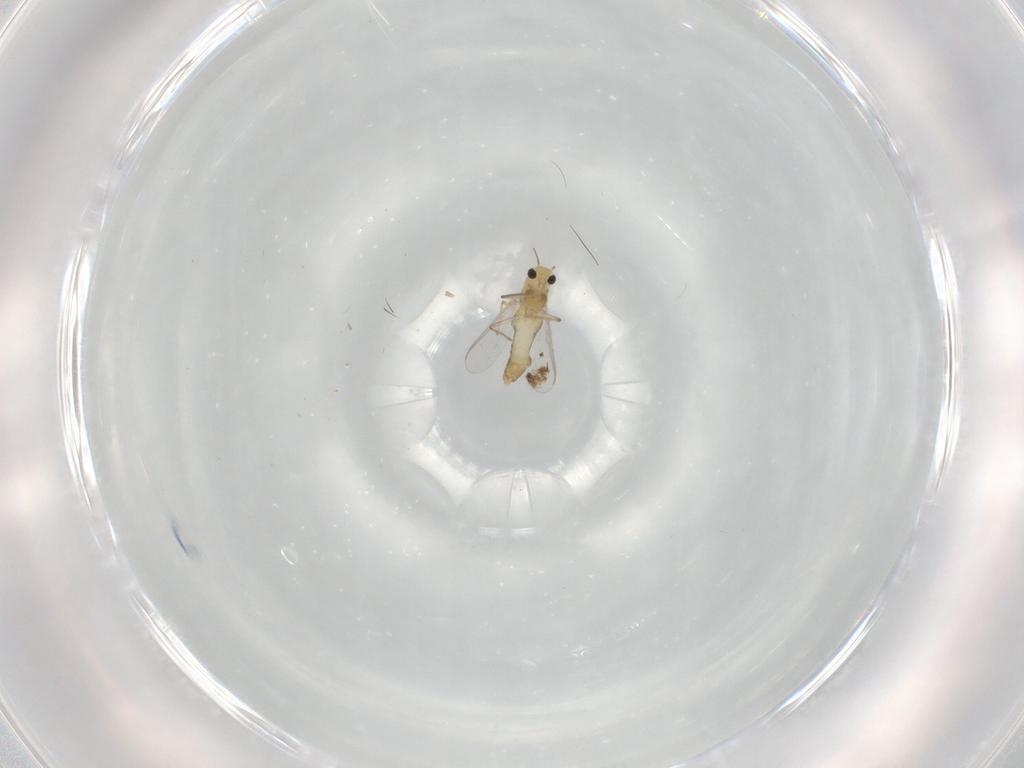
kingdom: Animalia
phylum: Arthropoda
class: Insecta
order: Diptera
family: Chironomidae
